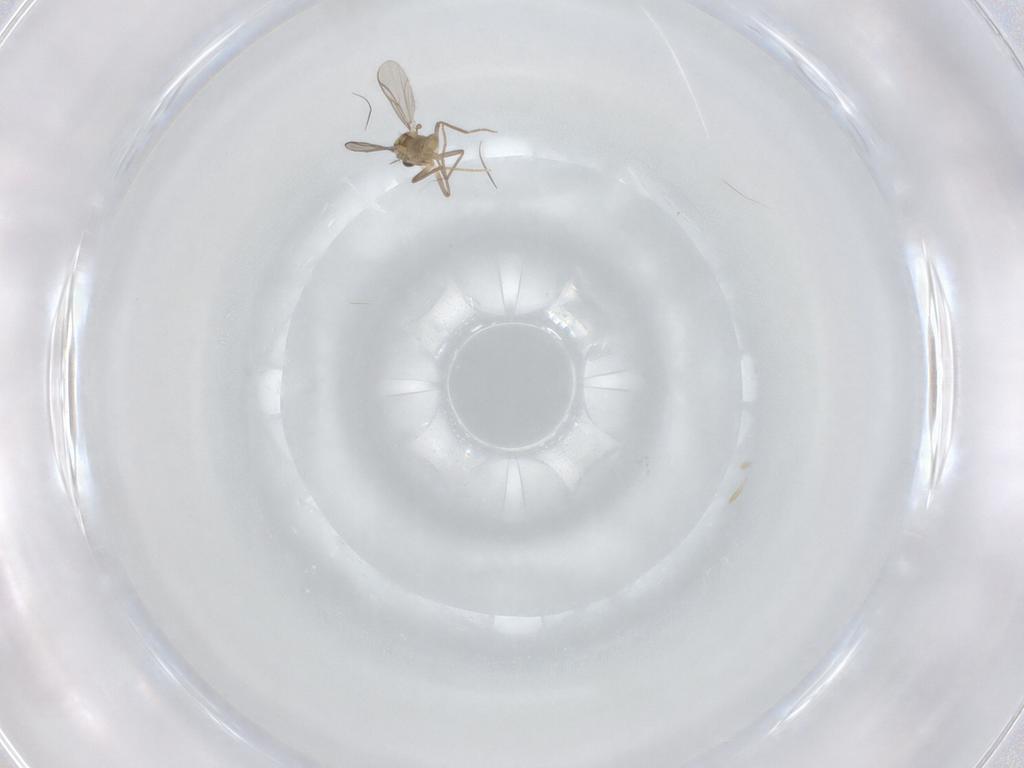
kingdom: Animalia
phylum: Arthropoda
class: Insecta
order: Diptera
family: Chironomidae
